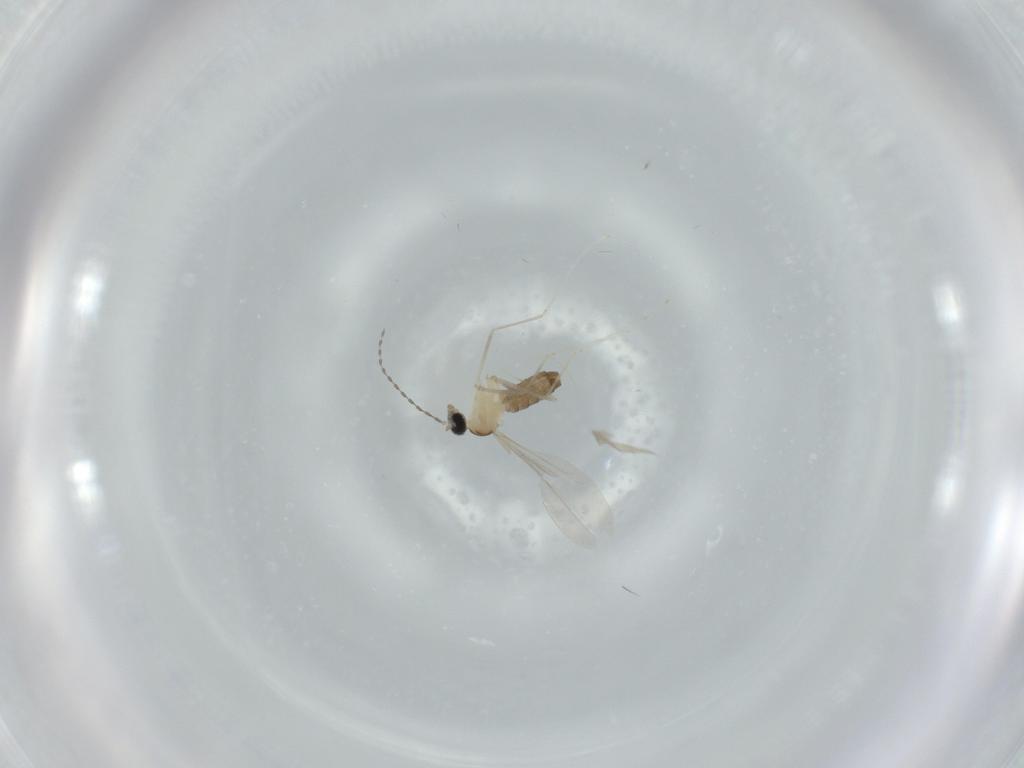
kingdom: Animalia
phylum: Arthropoda
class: Insecta
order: Diptera
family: Cecidomyiidae
